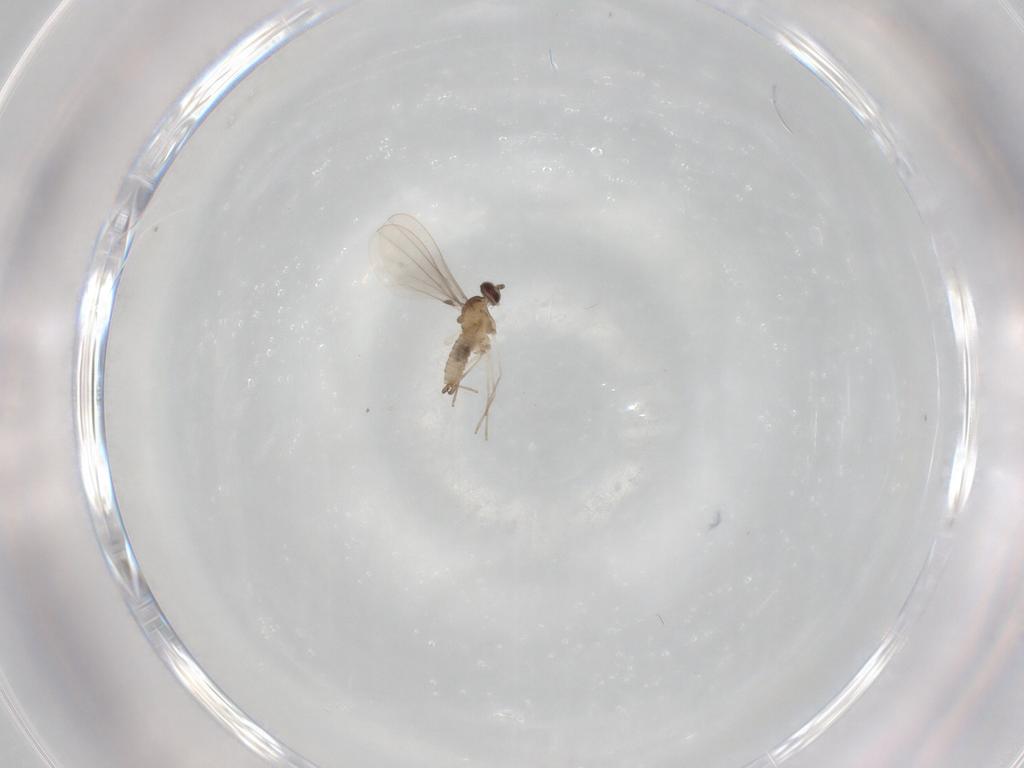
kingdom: Animalia
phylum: Arthropoda
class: Insecta
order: Diptera
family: Cecidomyiidae
